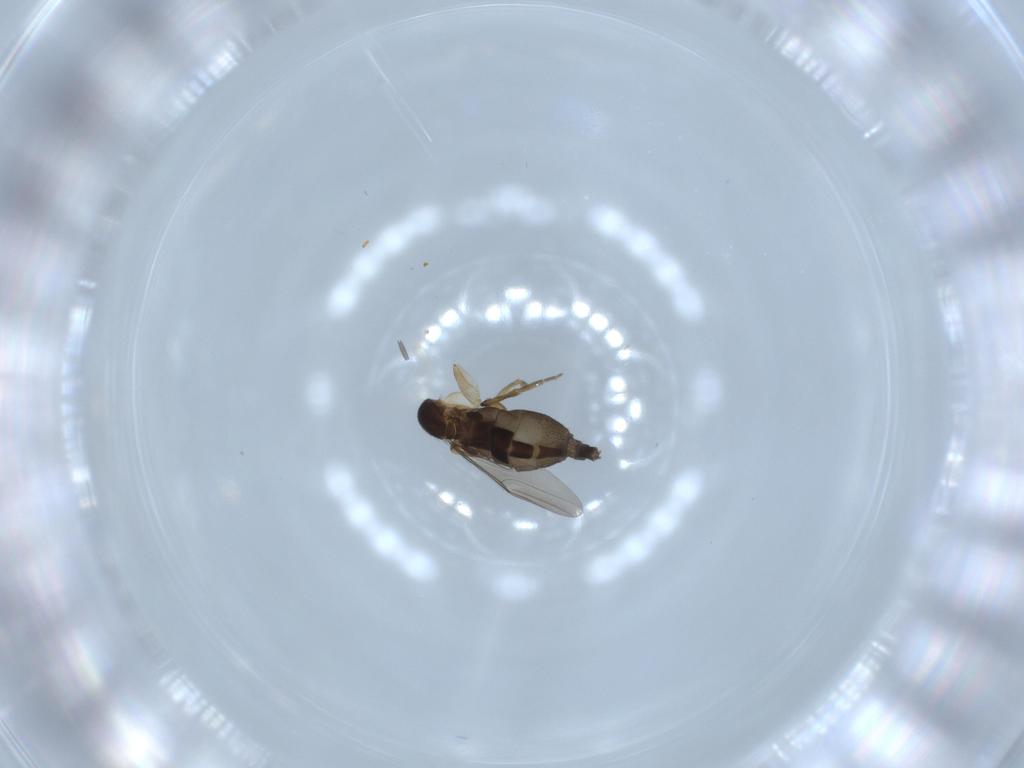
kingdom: Animalia
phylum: Arthropoda
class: Insecta
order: Diptera
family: Phoridae
